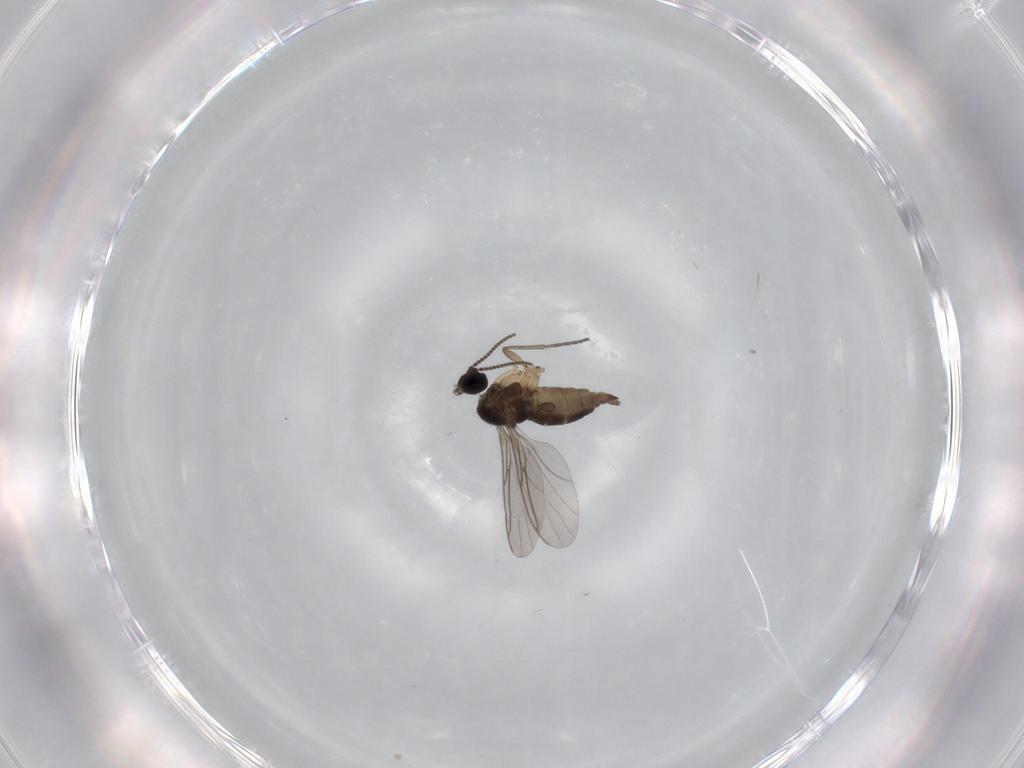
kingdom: Animalia
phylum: Arthropoda
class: Insecta
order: Diptera
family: Sciaridae
